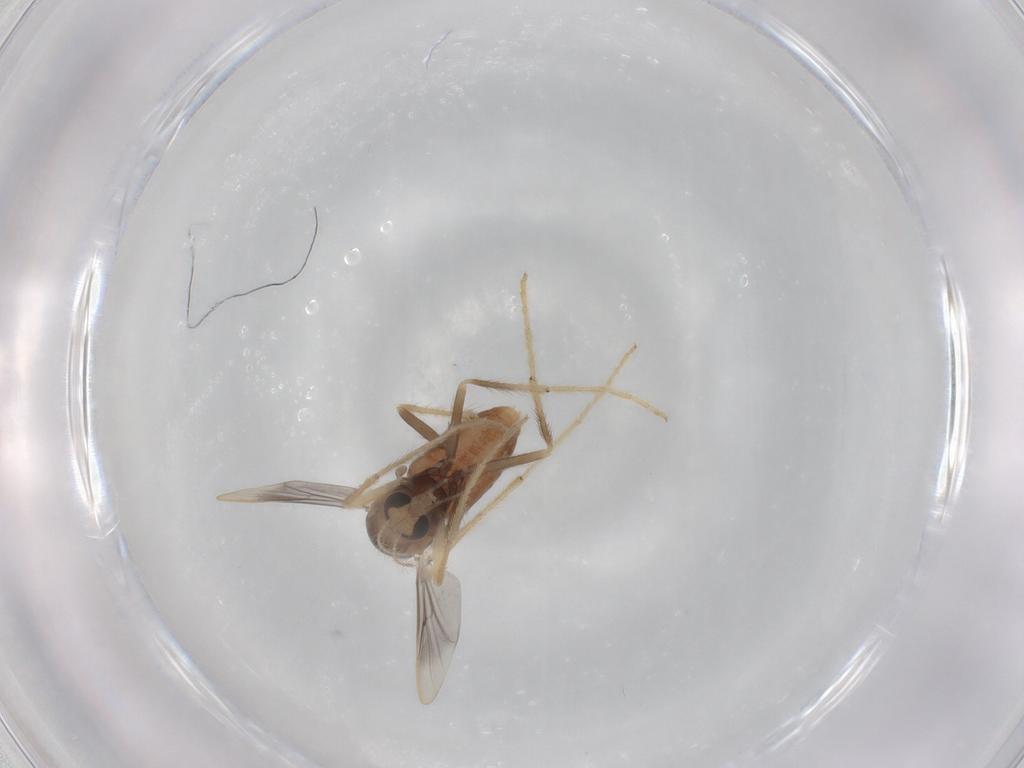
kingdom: Animalia
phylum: Arthropoda
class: Insecta
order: Diptera
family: Chironomidae
